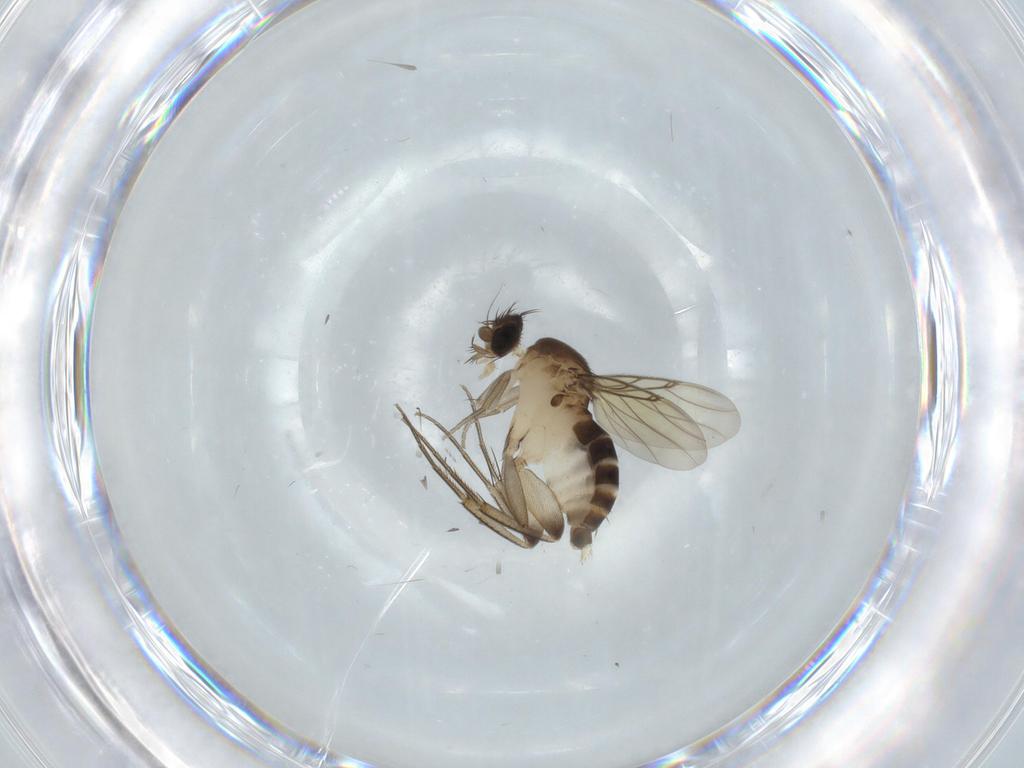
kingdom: Animalia
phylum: Arthropoda
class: Insecta
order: Diptera
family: Phoridae
